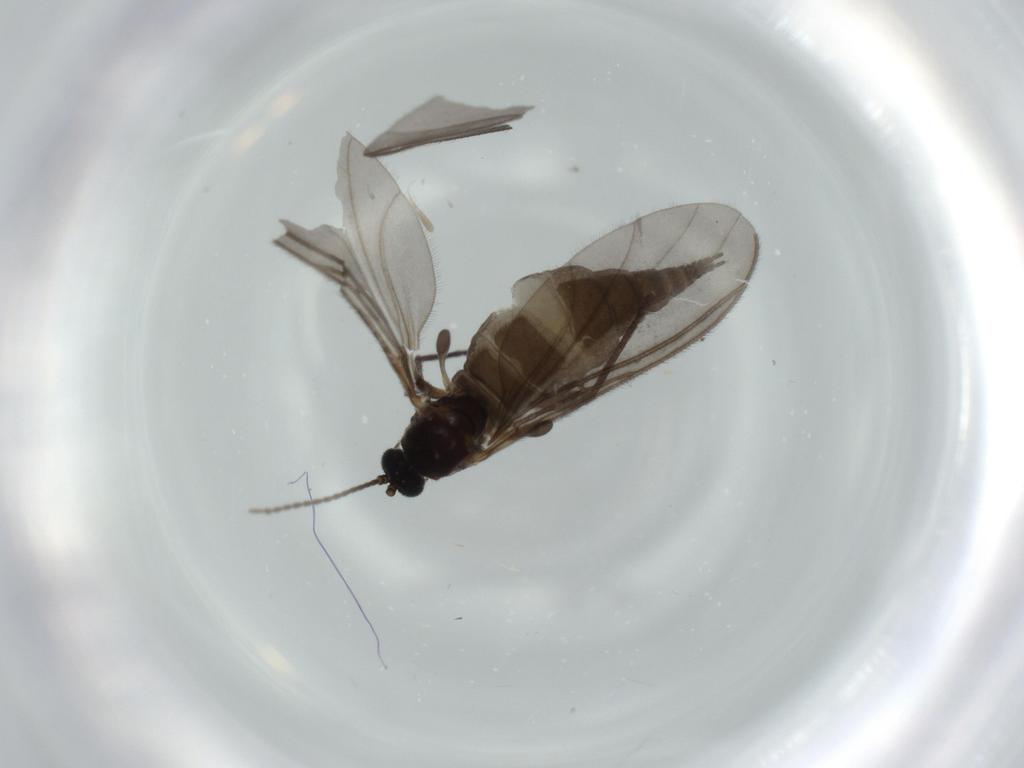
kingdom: Animalia
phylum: Arthropoda
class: Insecta
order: Diptera
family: Sciaridae
